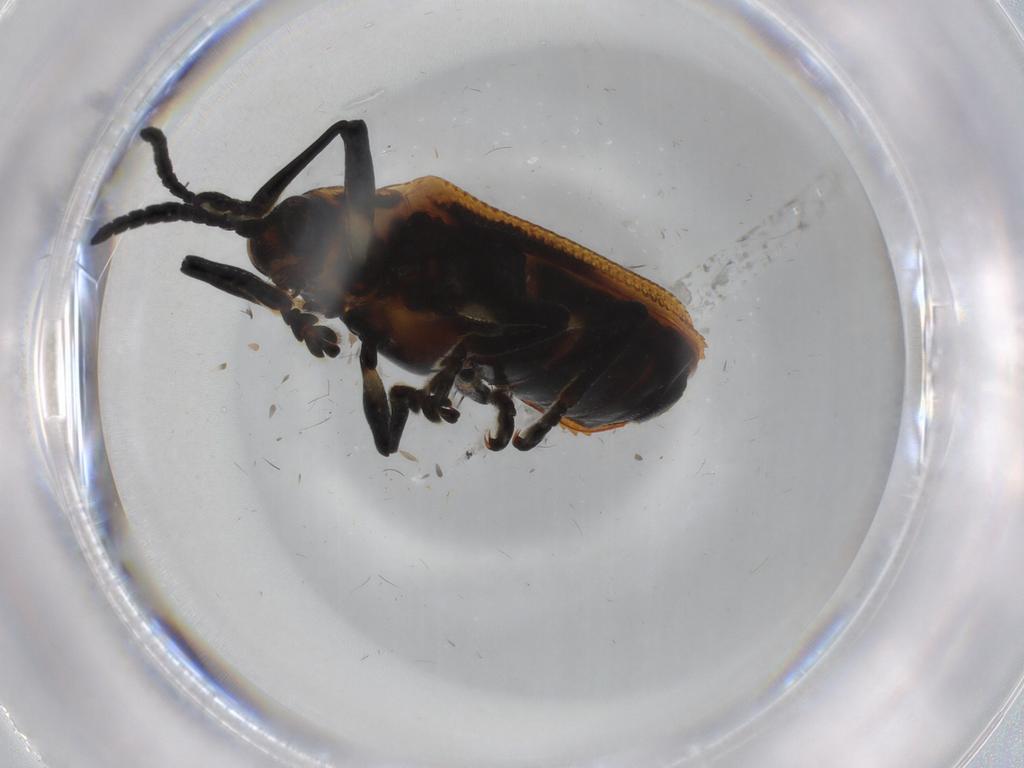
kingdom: Animalia
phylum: Arthropoda
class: Insecta
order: Coleoptera
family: Chrysomelidae
